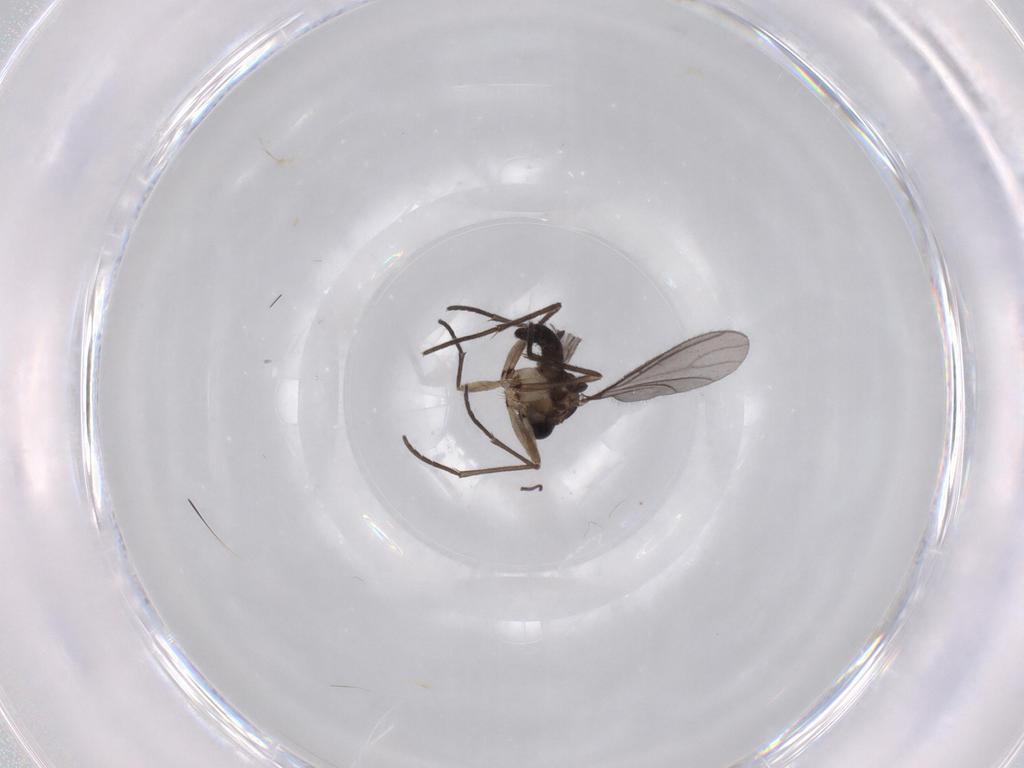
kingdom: Animalia
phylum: Arthropoda
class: Insecta
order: Diptera
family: Sciaridae
